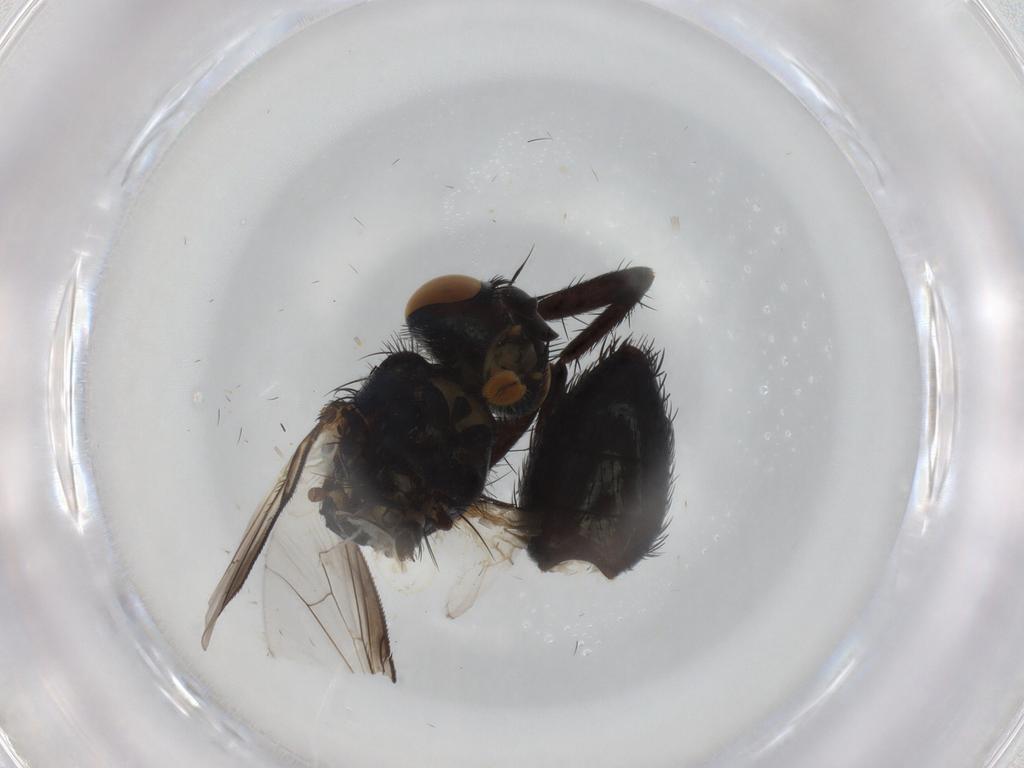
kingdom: Animalia
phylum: Arthropoda
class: Insecta
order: Diptera
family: Tachinidae
